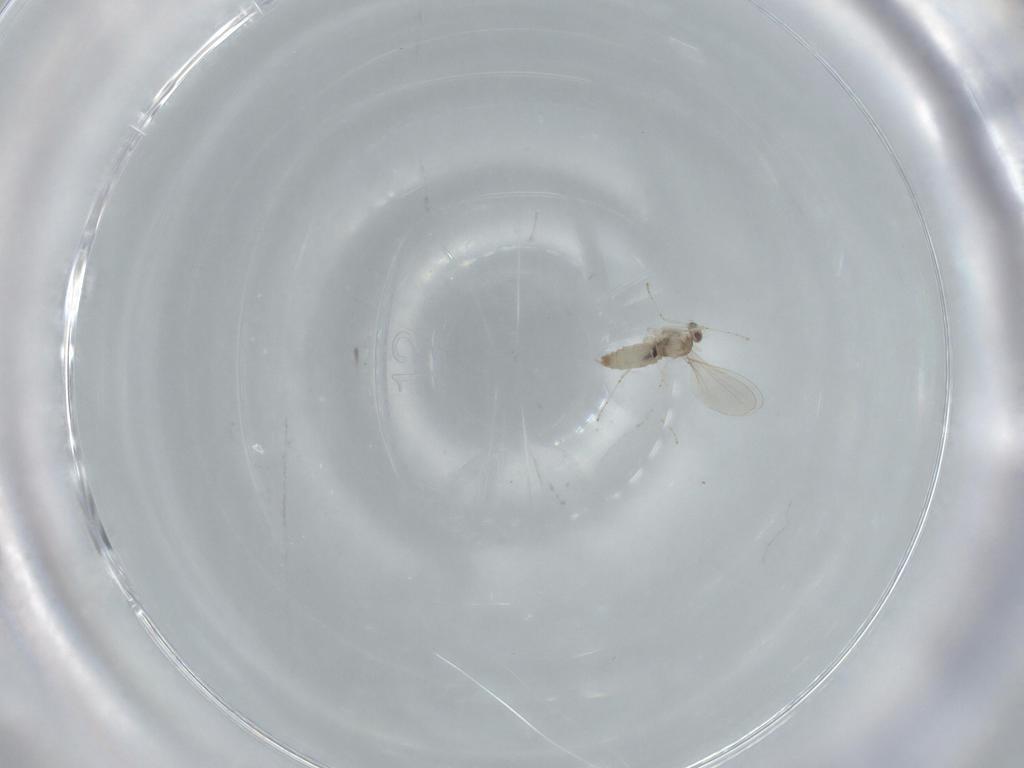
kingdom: Animalia
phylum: Arthropoda
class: Insecta
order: Diptera
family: Sciaridae
